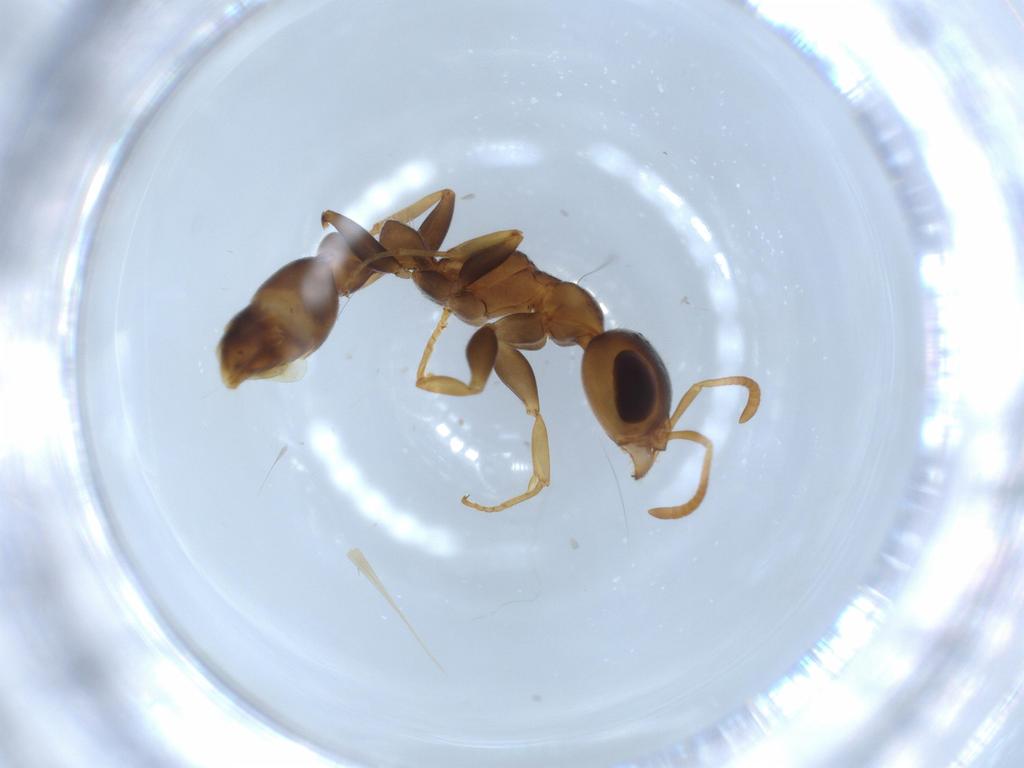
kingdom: Animalia
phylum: Arthropoda
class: Insecta
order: Hymenoptera
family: Formicidae
